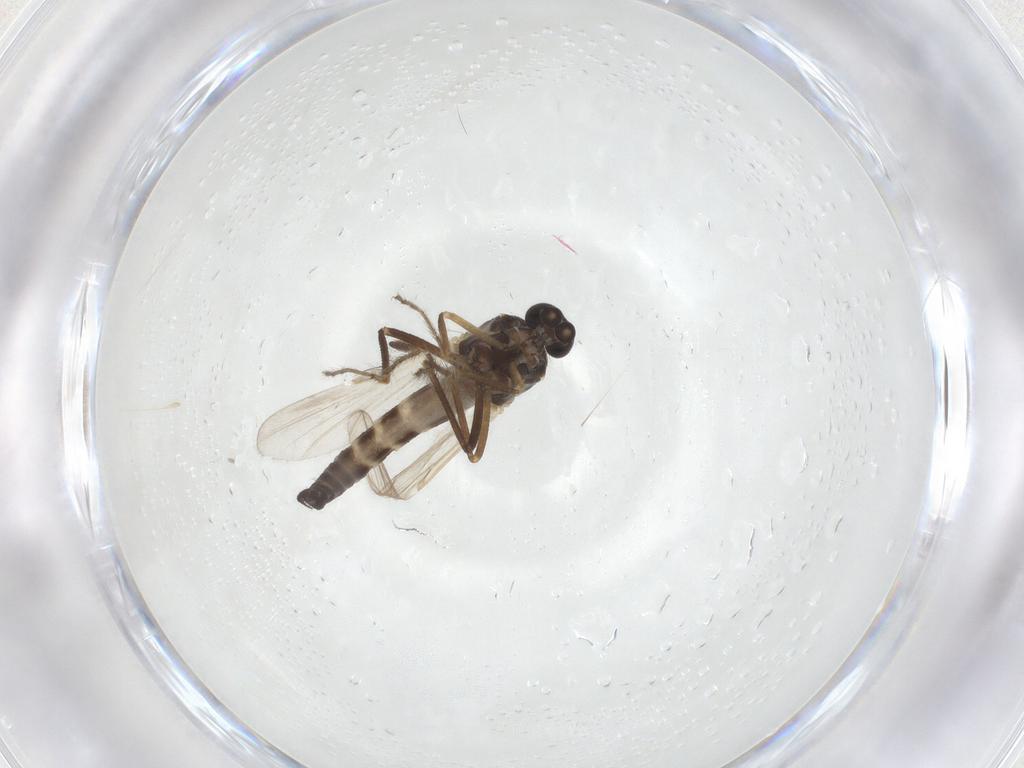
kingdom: Animalia
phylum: Arthropoda
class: Insecta
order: Diptera
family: Ceratopogonidae
